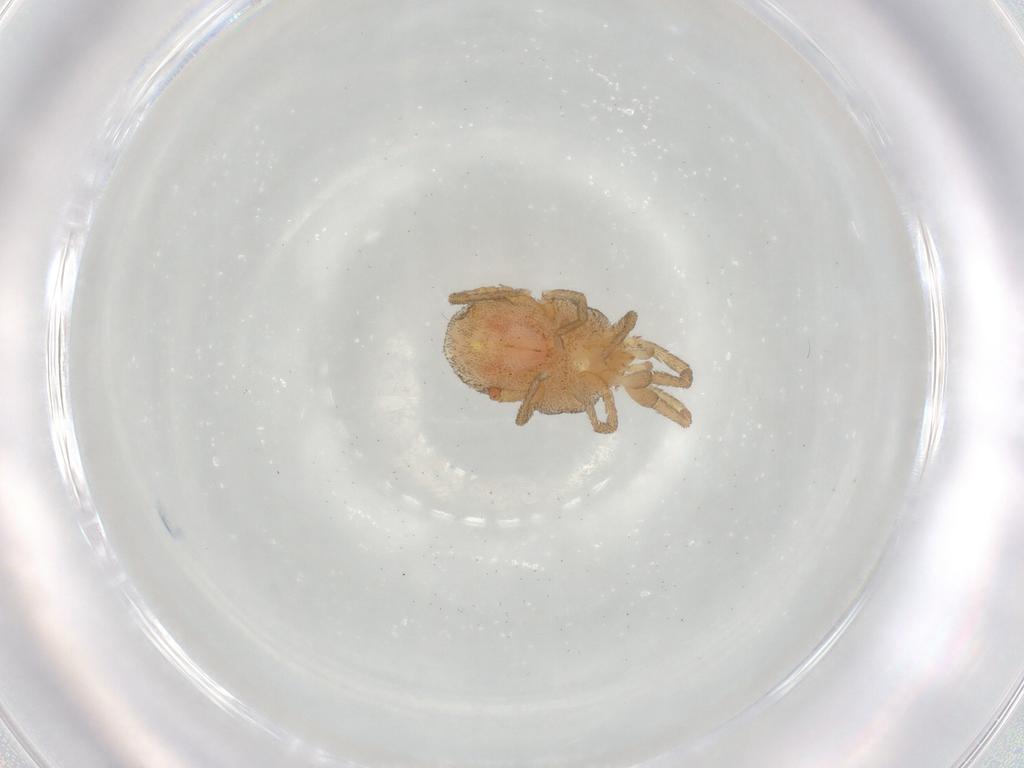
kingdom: Animalia
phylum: Arthropoda
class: Arachnida
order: Trombidiformes
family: Erythraeidae
